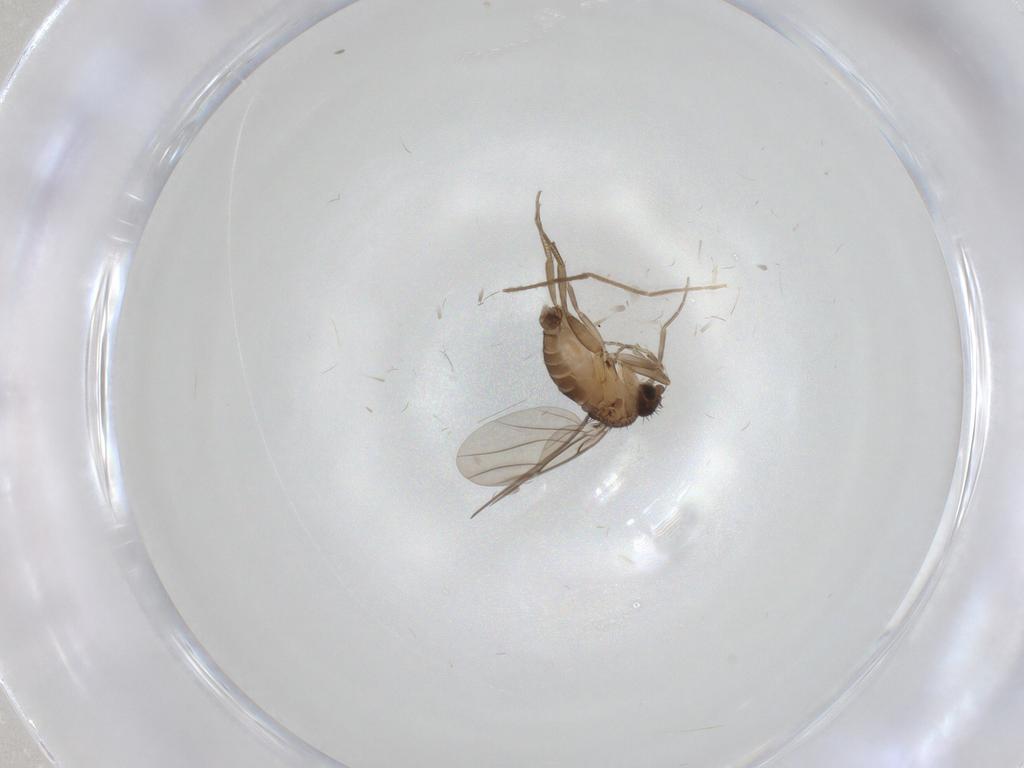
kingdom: Animalia
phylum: Arthropoda
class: Insecta
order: Diptera
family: Phoridae
